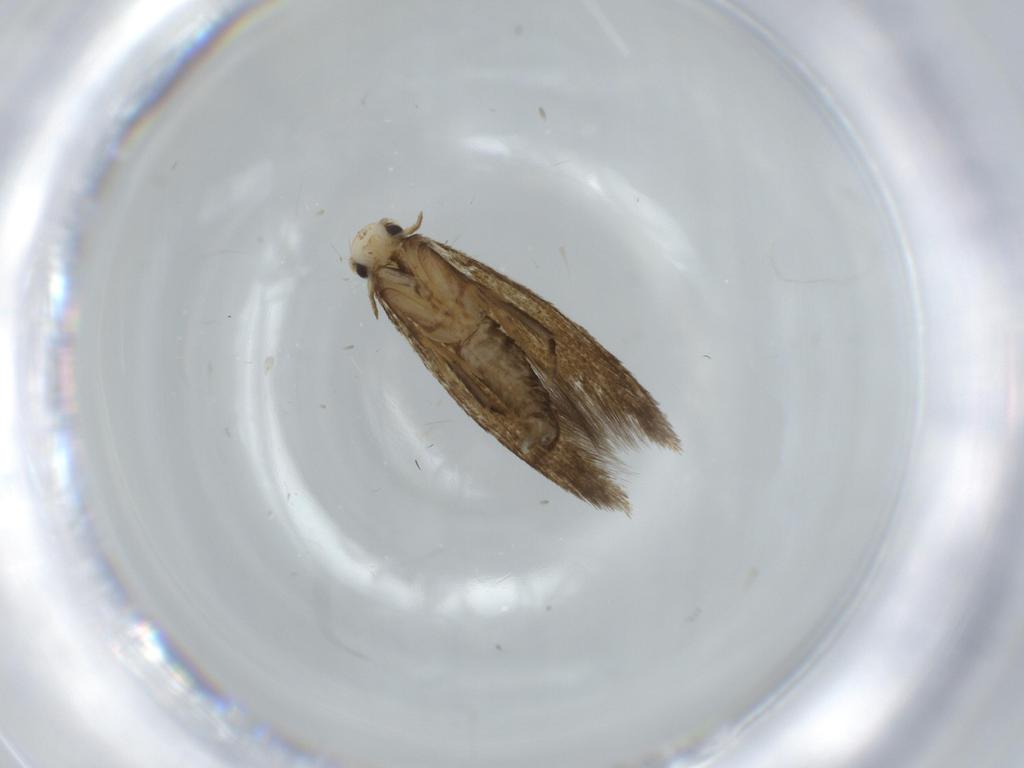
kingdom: Animalia
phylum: Arthropoda
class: Insecta
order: Lepidoptera
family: Tineidae
